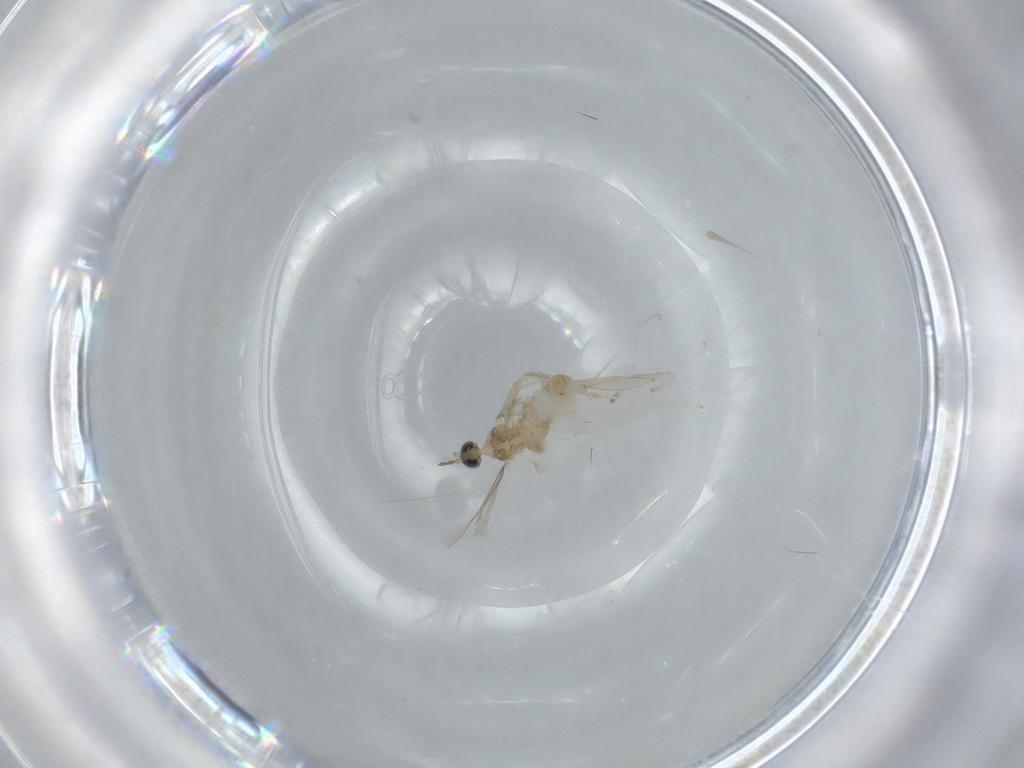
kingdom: Animalia
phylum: Arthropoda
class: Insecta
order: Diptera
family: Cecidomyiidae
